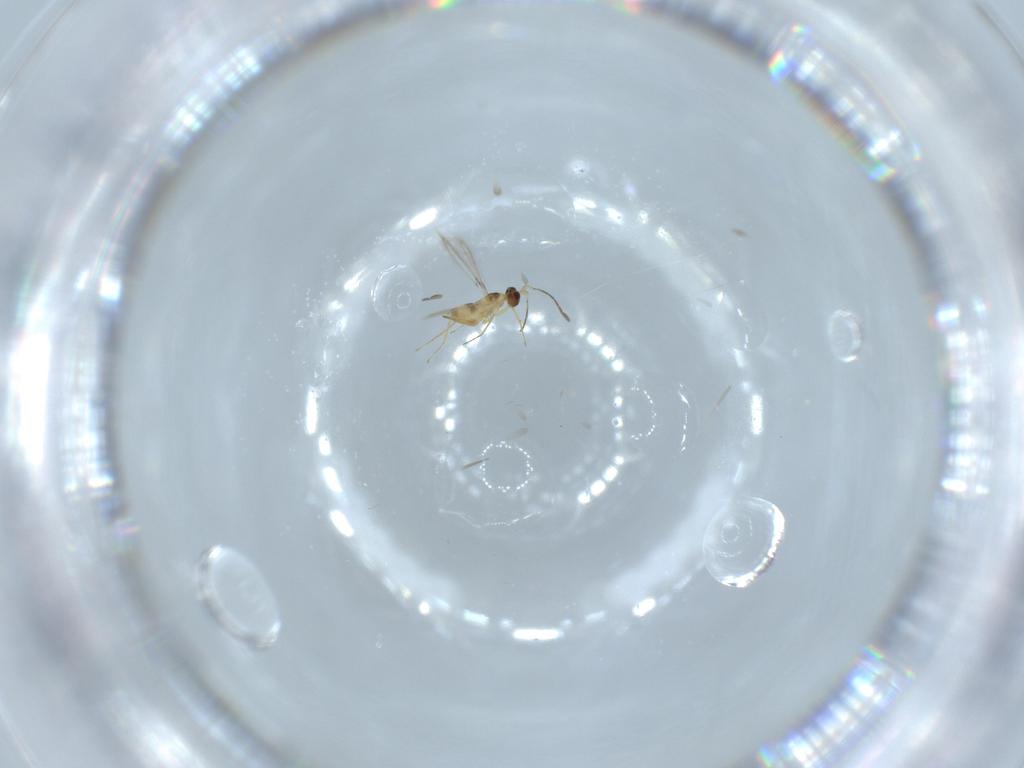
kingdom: Animalia
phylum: Arthropoda
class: Insecta
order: Hymenoptera
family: Mymaridae
